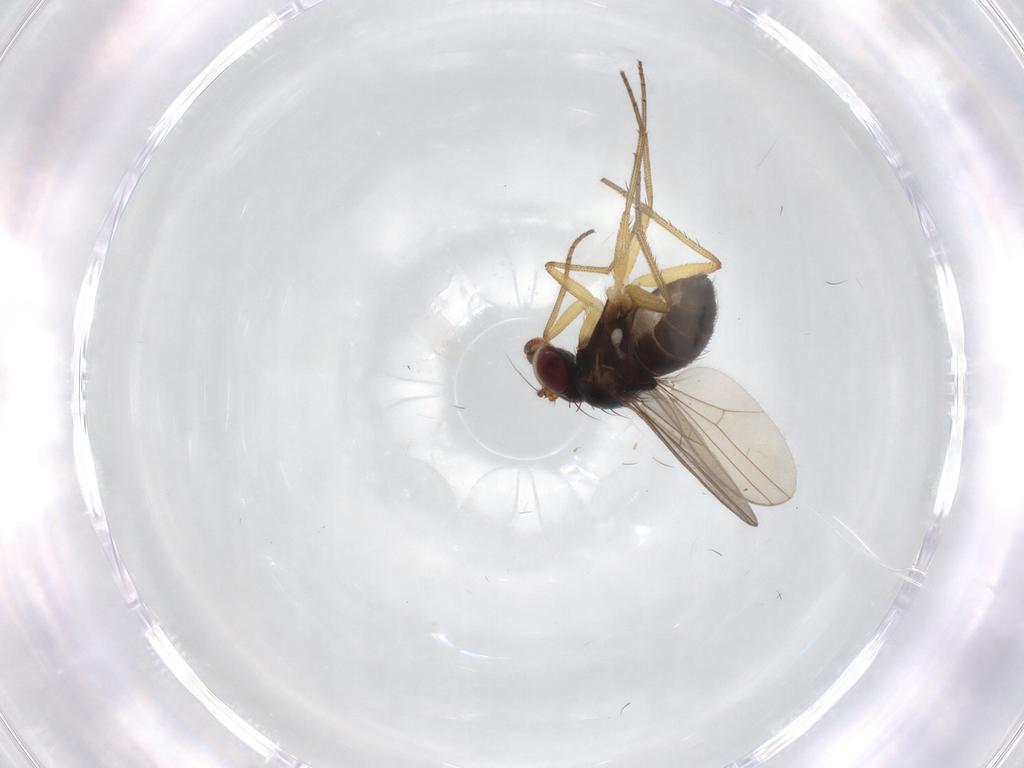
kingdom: Animalia
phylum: Arthropoda
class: Insecta
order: Diptera
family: Dolichopodidae
